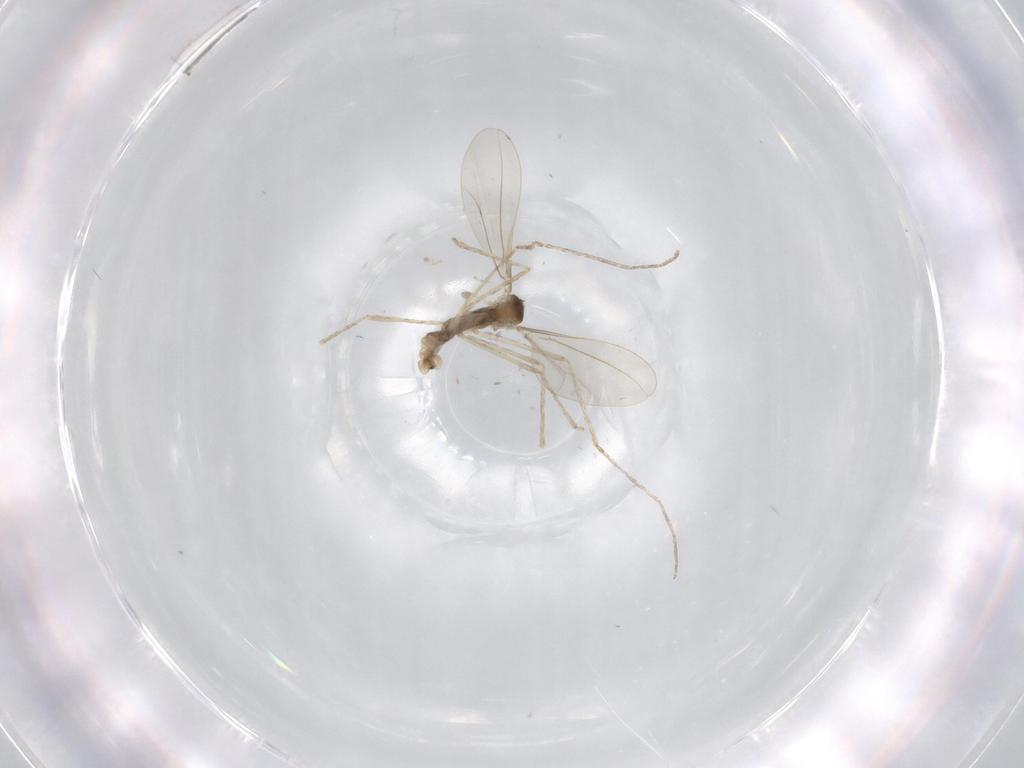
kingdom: Animalia
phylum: Arthropoda
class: Insecta
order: Diptera
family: Cecidomyiidae
